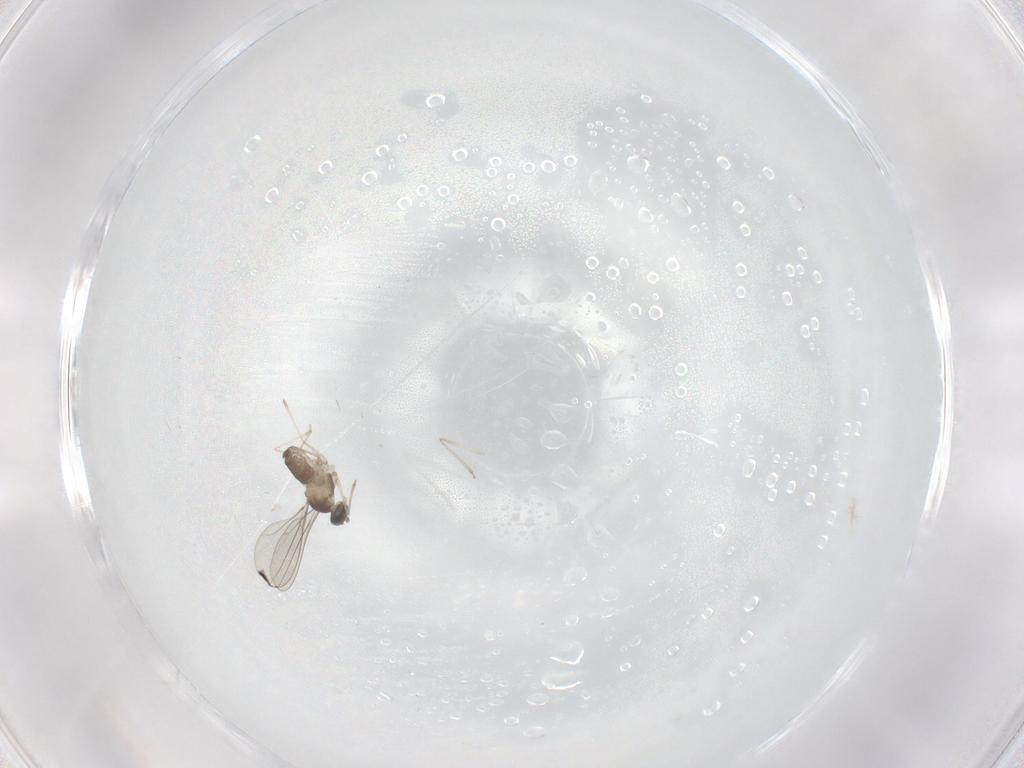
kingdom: Animalia
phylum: Arthropoda
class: Insecta
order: Diptera
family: Cecidomyiidae
